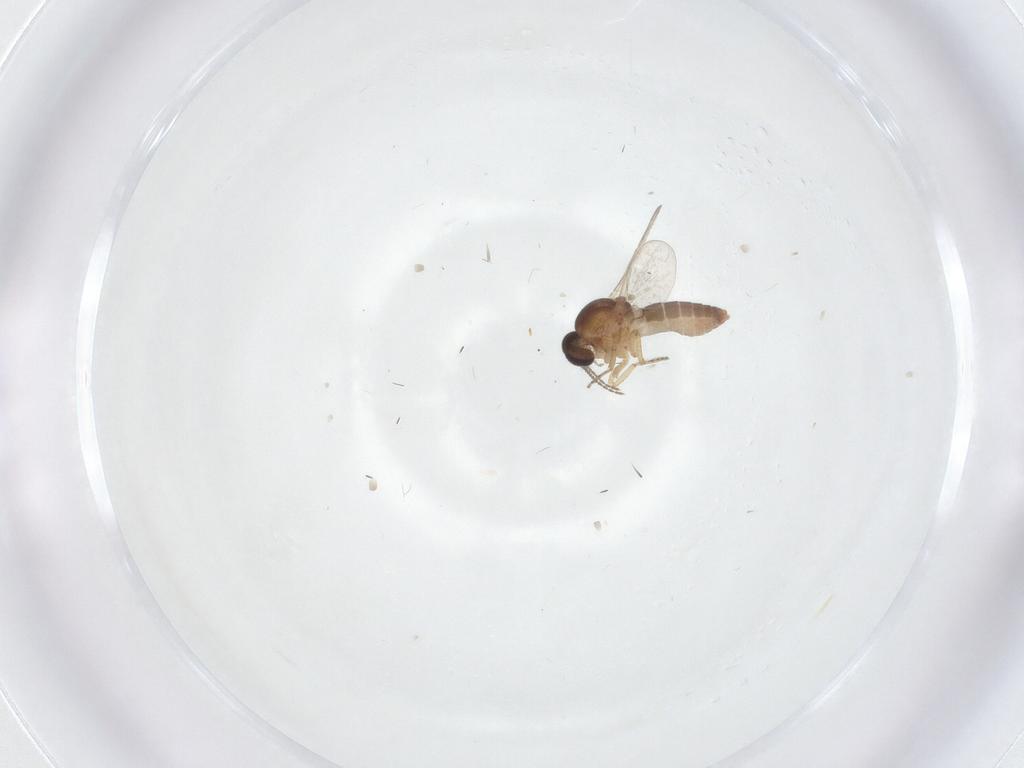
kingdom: Animalia
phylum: Arthropoda
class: Insecta
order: Diptera
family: Ceratopogonidae
